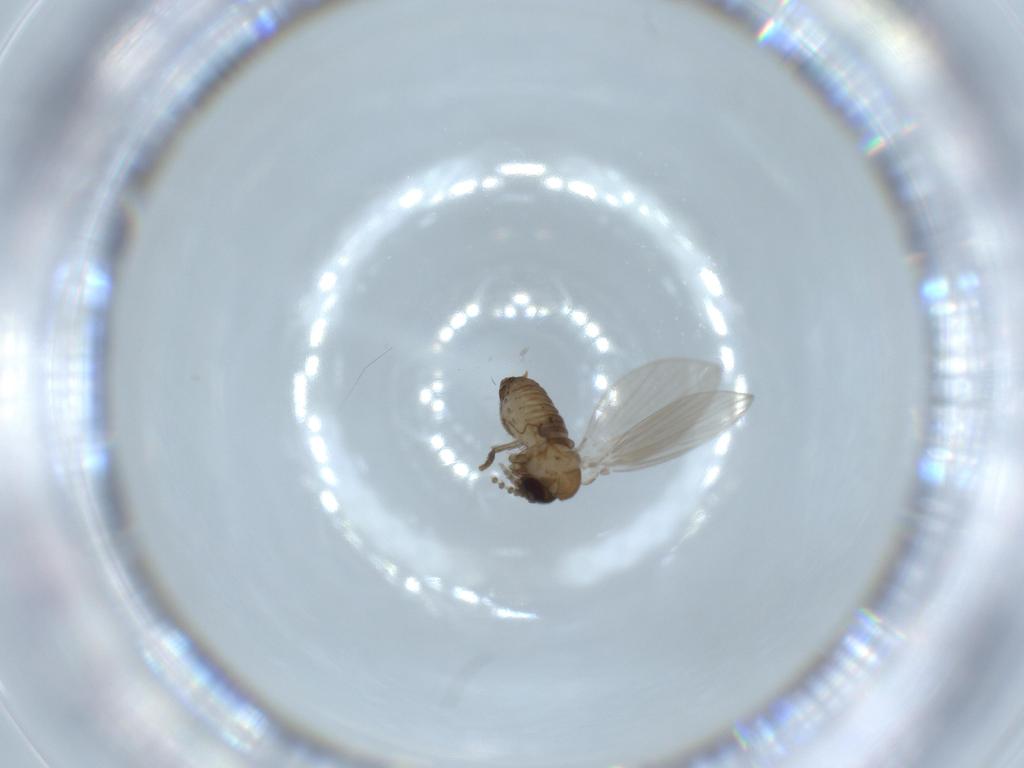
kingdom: Animalia
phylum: Arthropoda
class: Insecta
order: Diptera
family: Psychodidae
